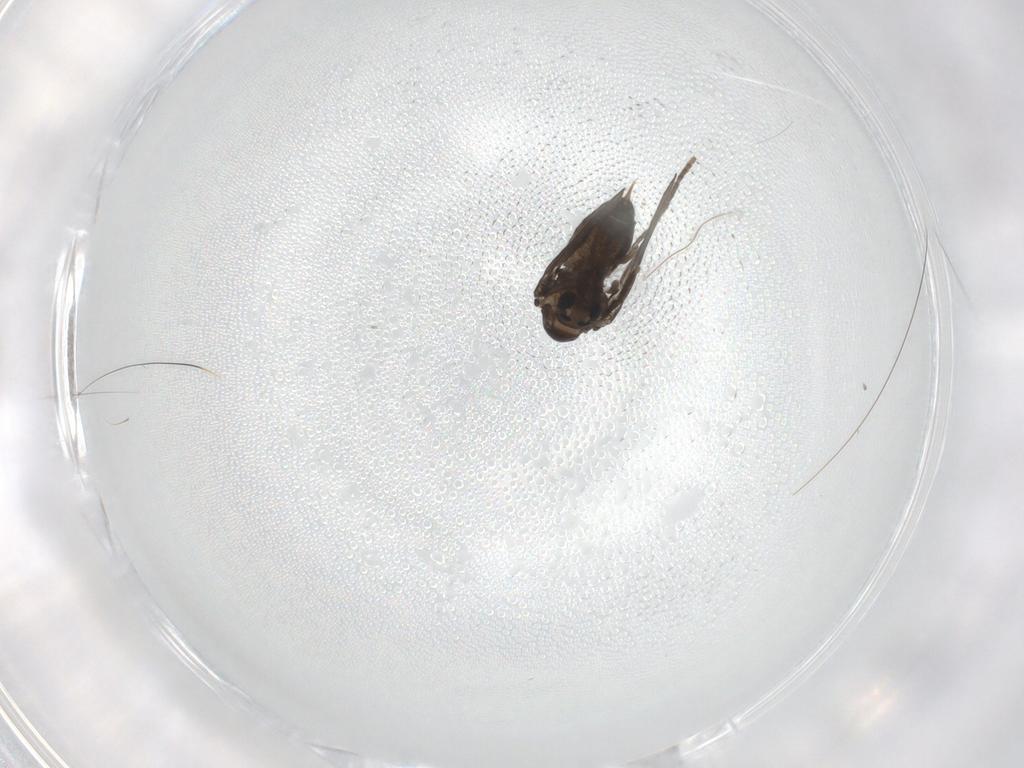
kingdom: Animalia
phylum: Arthropoda
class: Insecta
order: Diptera
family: Psychodidae
